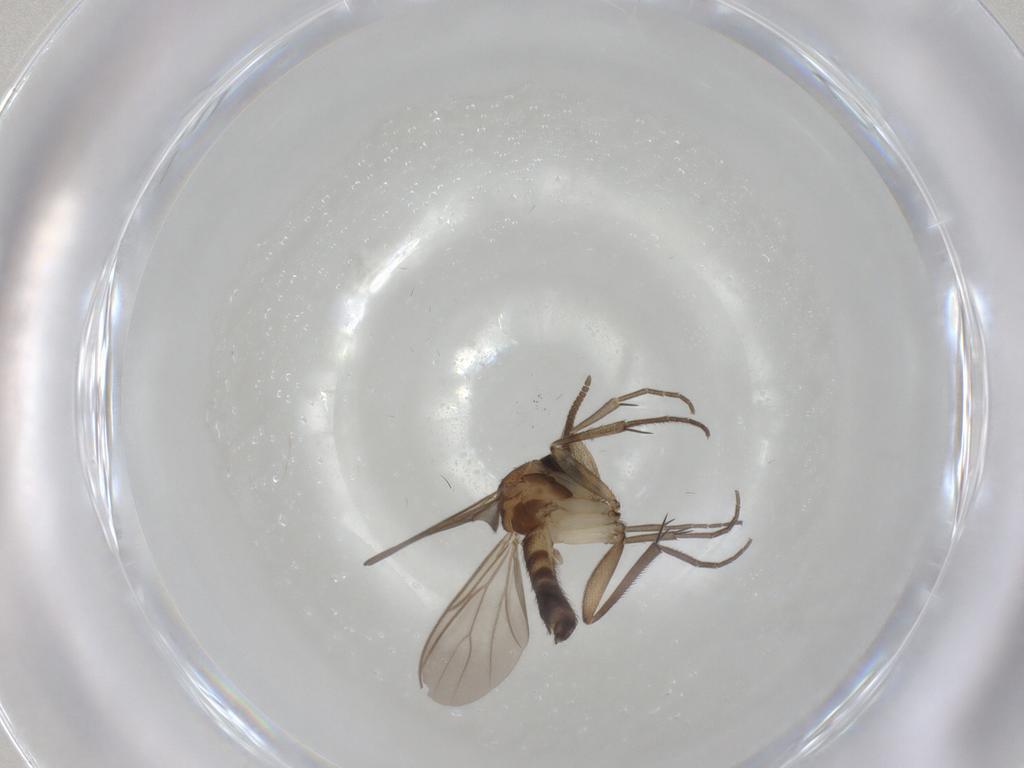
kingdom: Animalia
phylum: Arthropoda
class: Insecta
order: Diptera
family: Mycetophilidae
